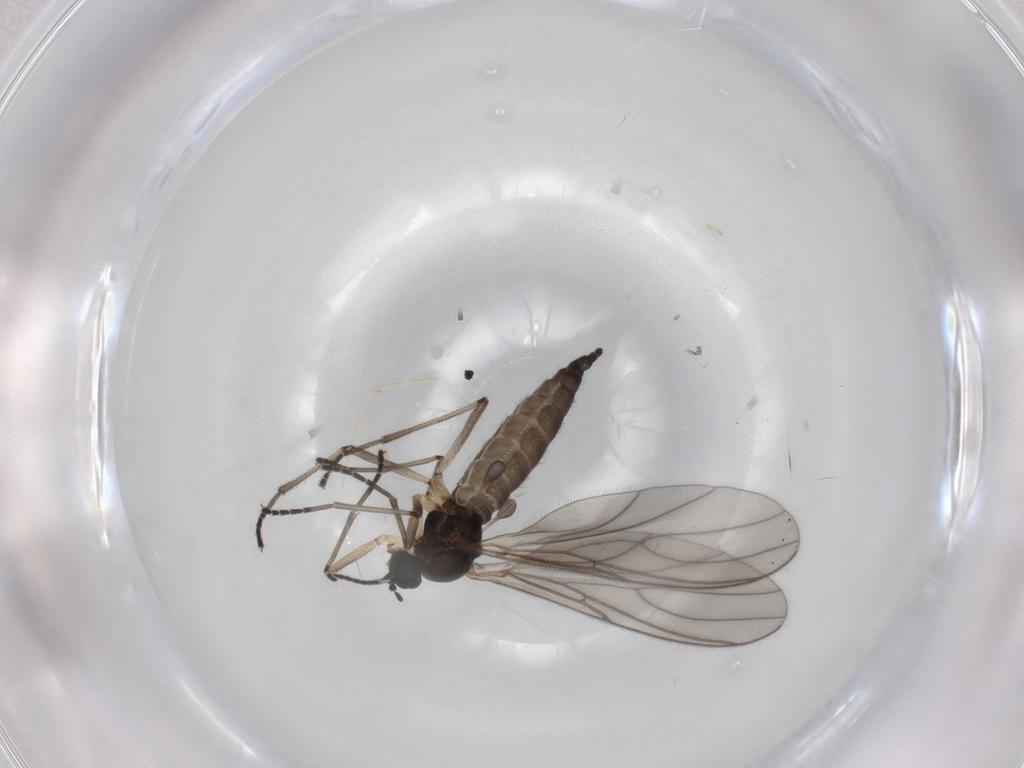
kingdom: Animalia
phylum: Arthropoda
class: Insecta
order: Diptera
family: Sciaridae
